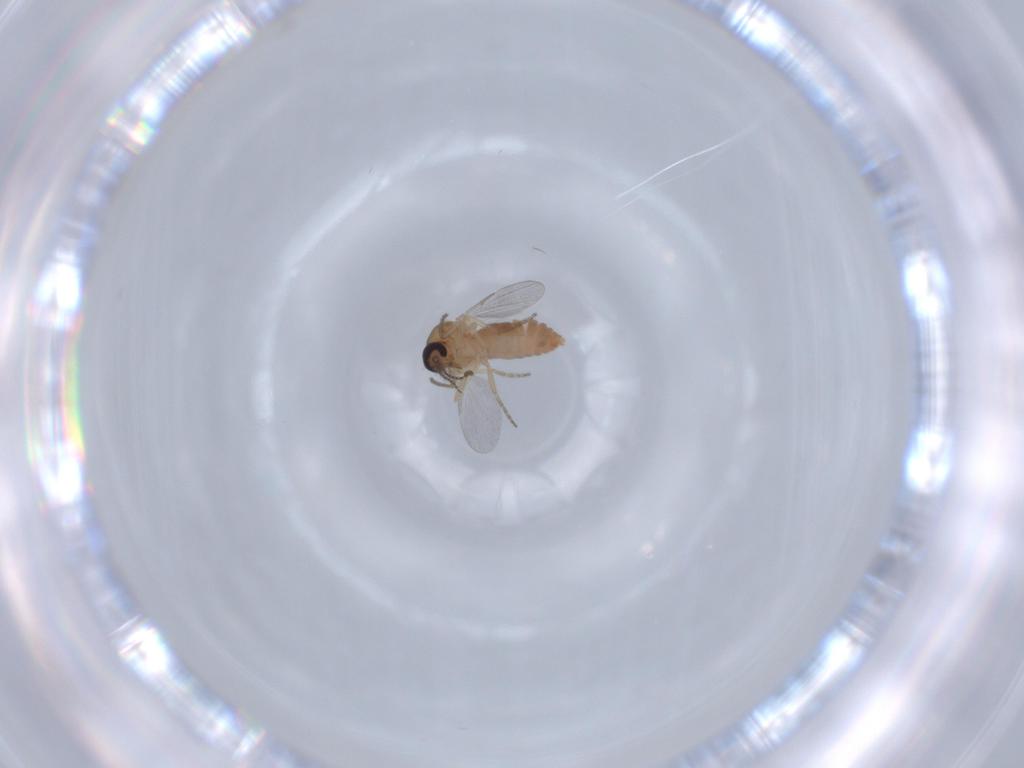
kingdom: Animalia
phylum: Arthropoda
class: Insecta
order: Diptera
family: Ceratopogonidae
